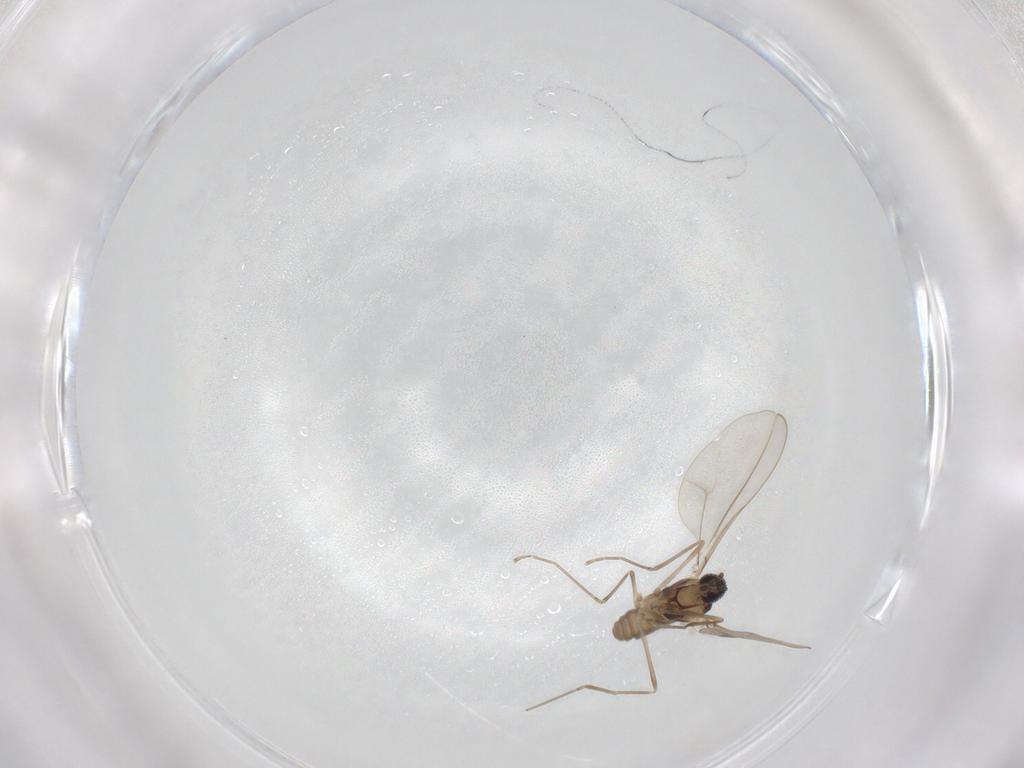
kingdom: Animalia
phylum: Arthropoda
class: Insecta
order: Diptera
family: Cecidomyiidae
